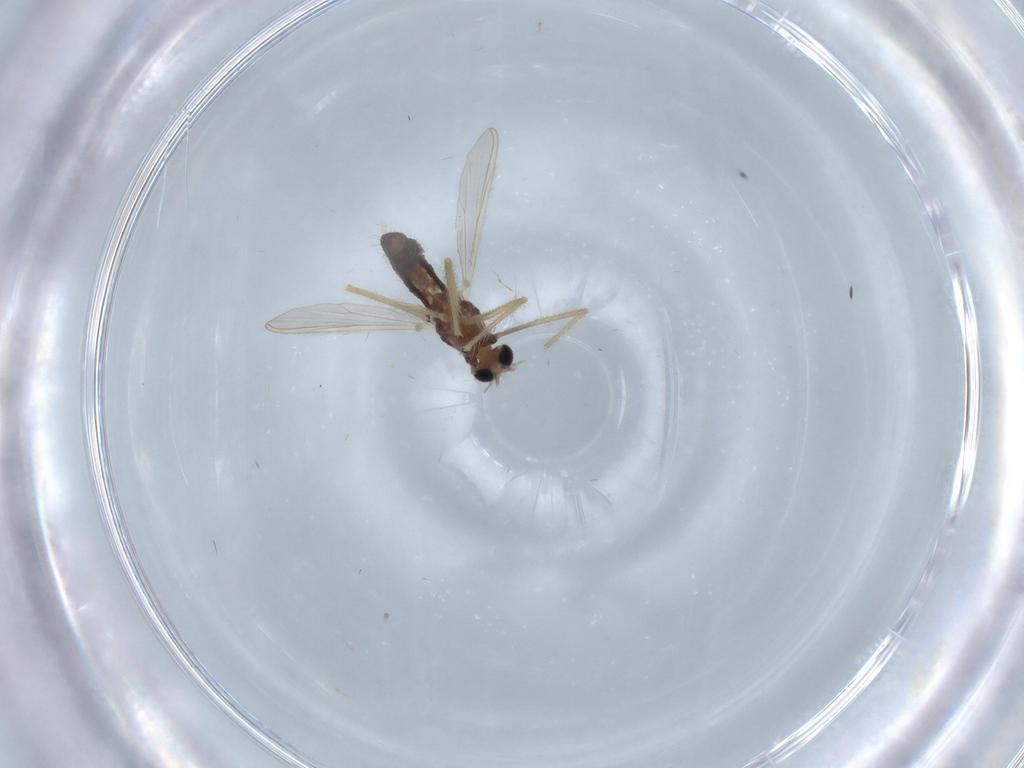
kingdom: Animalia
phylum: Arthropoda
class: Insecta
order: Diptera
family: Chironomidae
